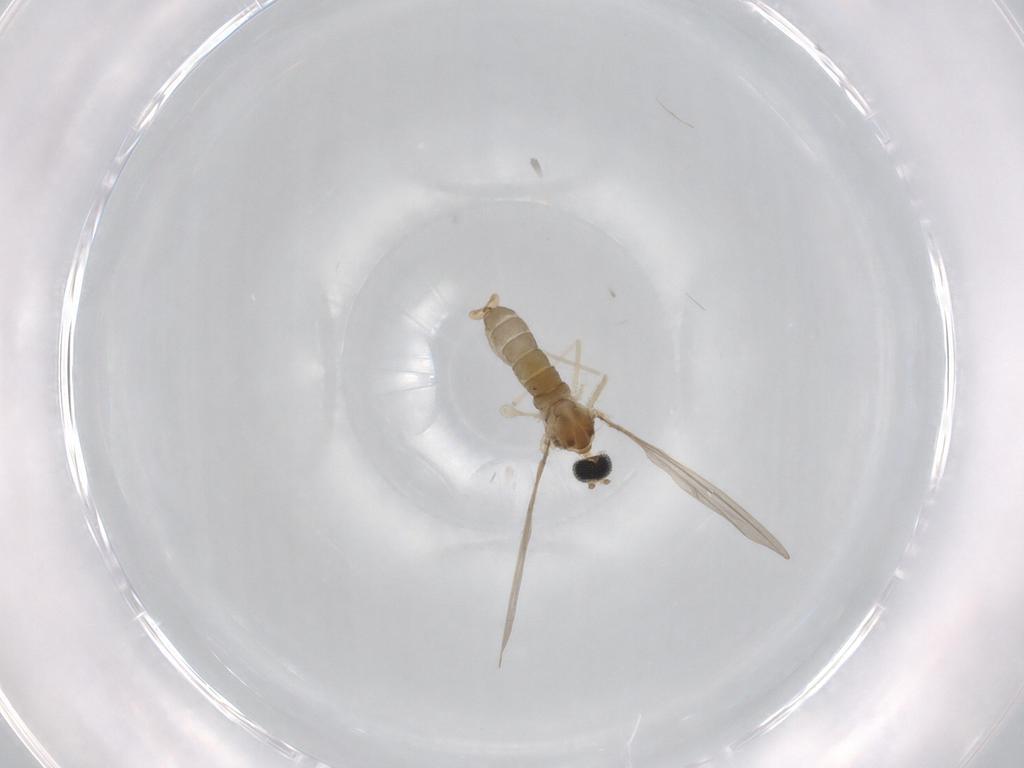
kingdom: Animalia
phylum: Arthropoda
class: Insecta
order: Diptera
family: Cecidomyiidae
